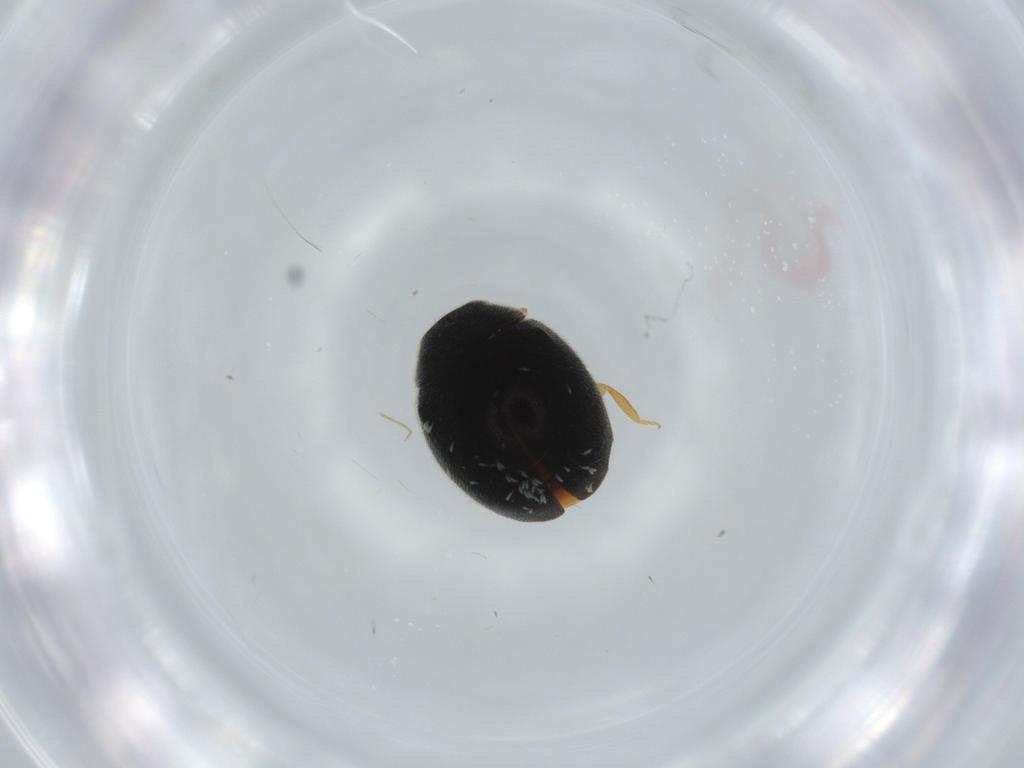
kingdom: Animalia
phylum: Arthropoda
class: Insecta
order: Coleoptera
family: Coccinellidae
